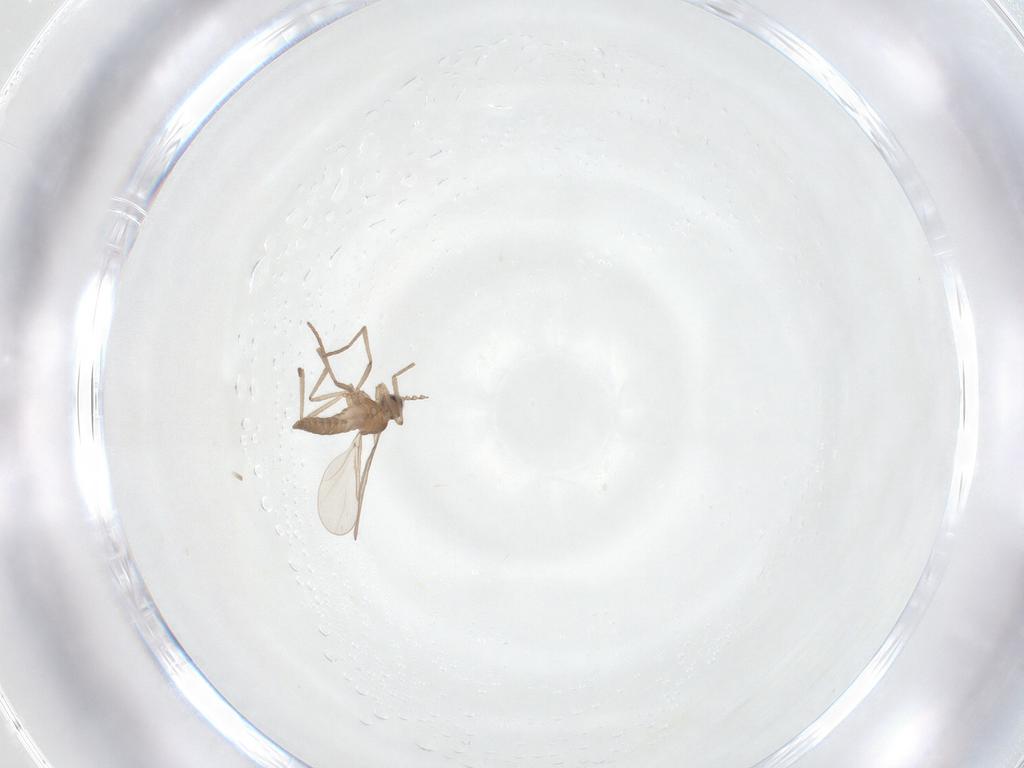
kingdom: Animalia
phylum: Arthropoda
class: Insecta
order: Diptera
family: Cecidomyiidae
